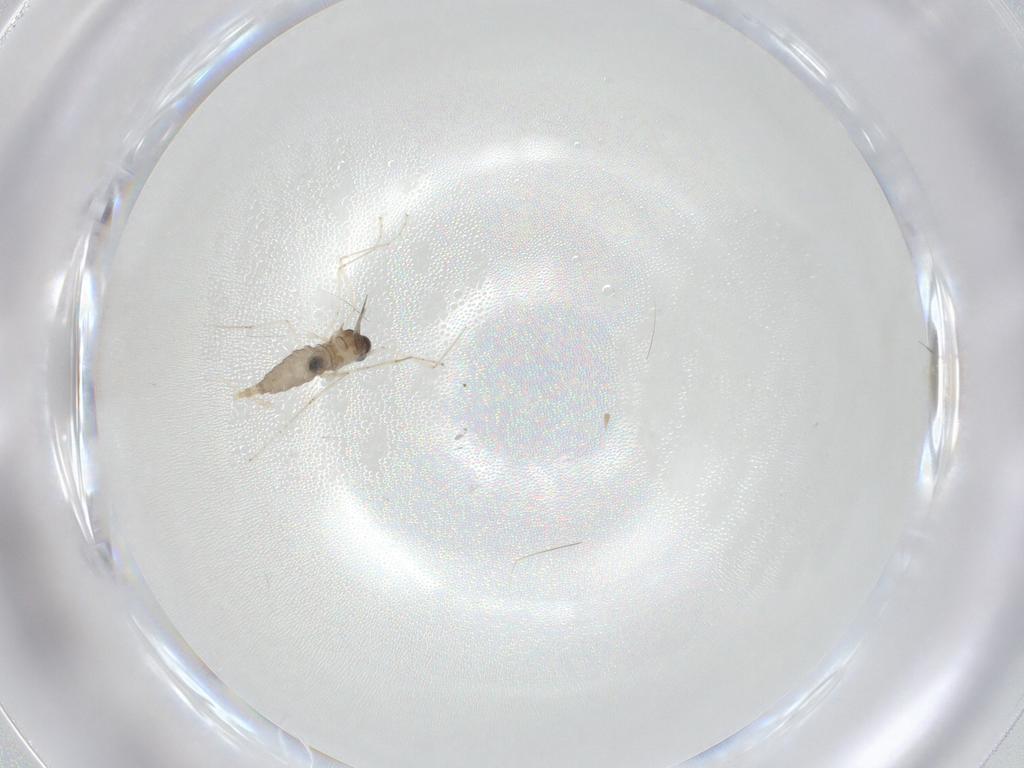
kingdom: Animalia
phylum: Arthropoda
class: Insecta
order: Diptera
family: Cecidomyiidae
